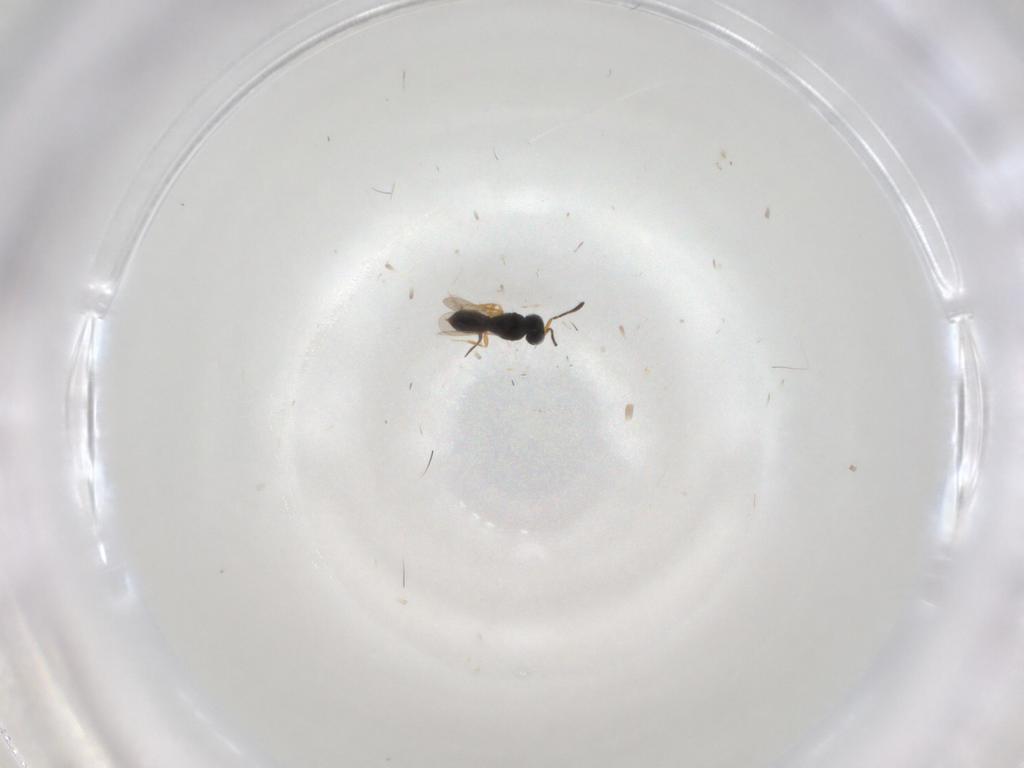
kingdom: Animalia
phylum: Arthropoda
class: Insecta
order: Hymenoptera
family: Scelionidae
